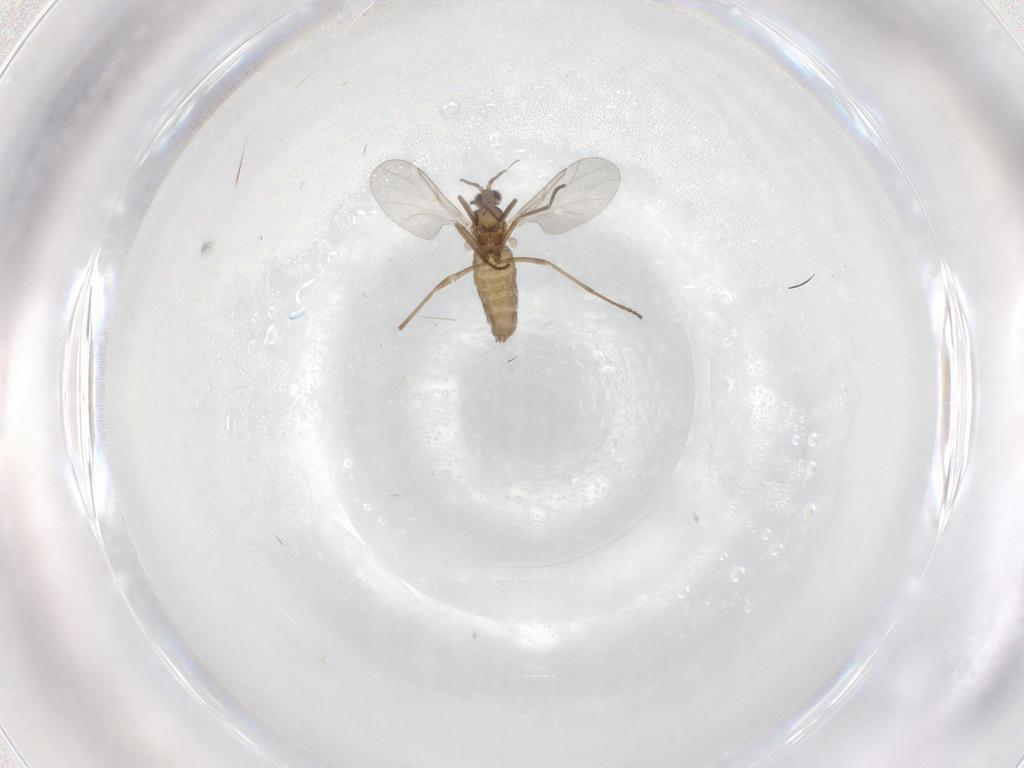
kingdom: Animalia
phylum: Arthropoda
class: Insecta
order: Diptera
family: Cecidomyiidae
